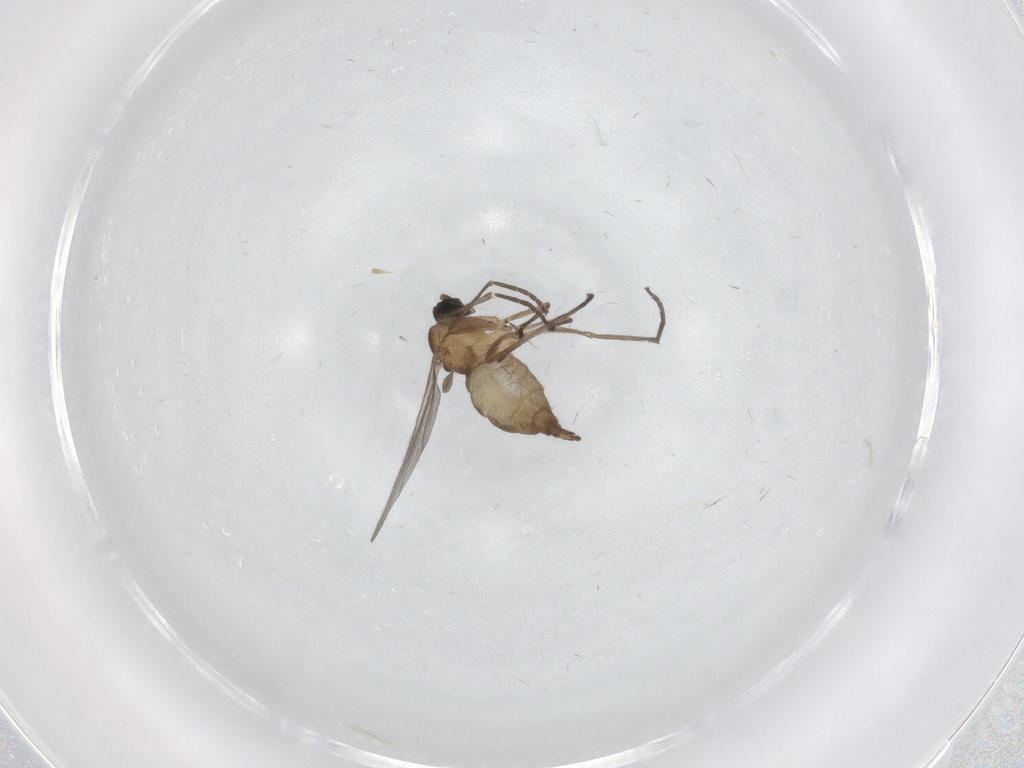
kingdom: Animalia
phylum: Arthropoda
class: Insecta
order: Diptera
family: Sciaridae
